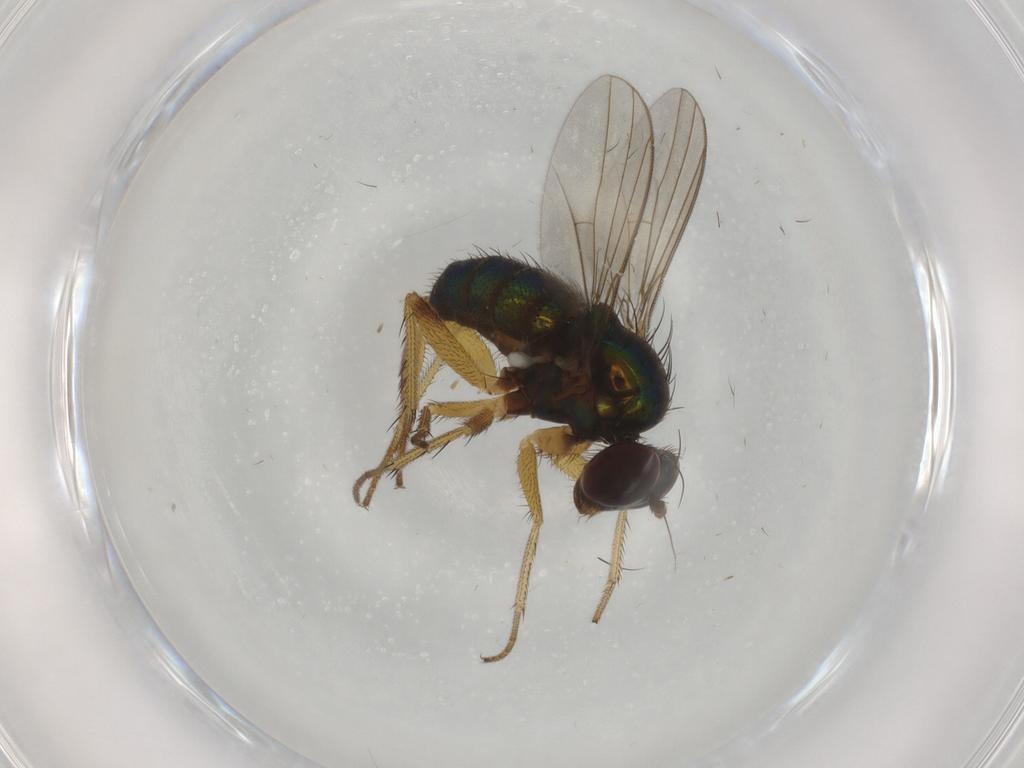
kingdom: Animalia
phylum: Arthropoda
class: Insecta
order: Diptera
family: Dolichopodidae
